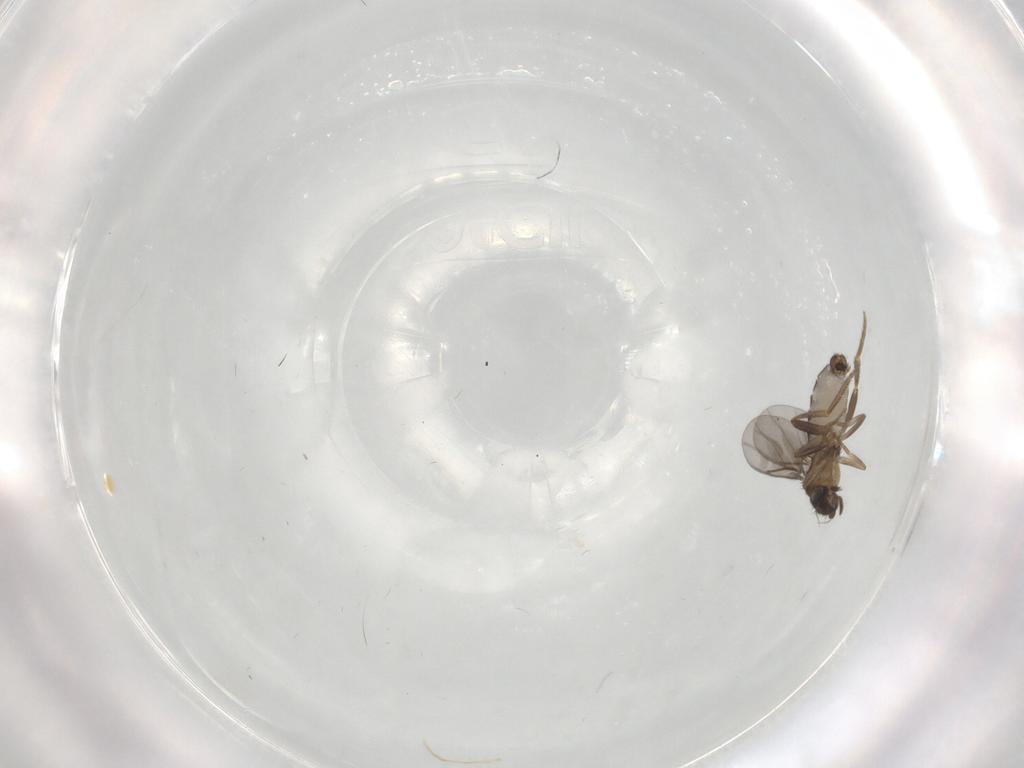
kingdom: Animalia
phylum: Arthropoda
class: Insecta
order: Diptera
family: Cecidomyiidae
